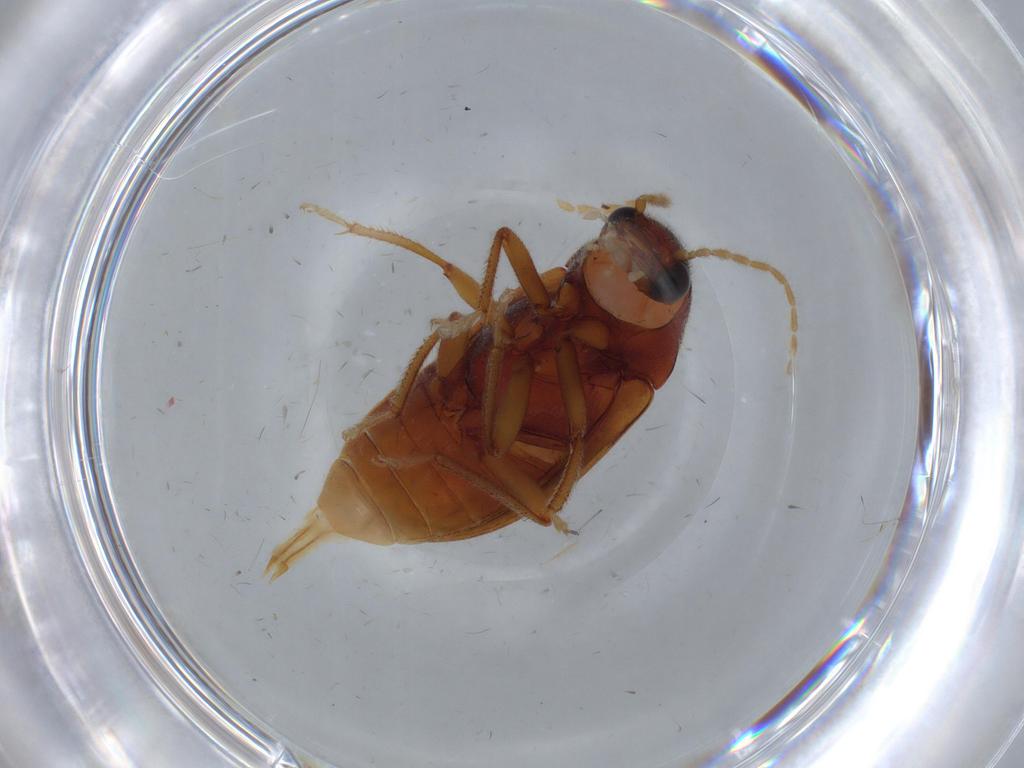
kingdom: Animalia
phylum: Arthropoda
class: Insecta
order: Coleoptera
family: Ptilodactylidae
